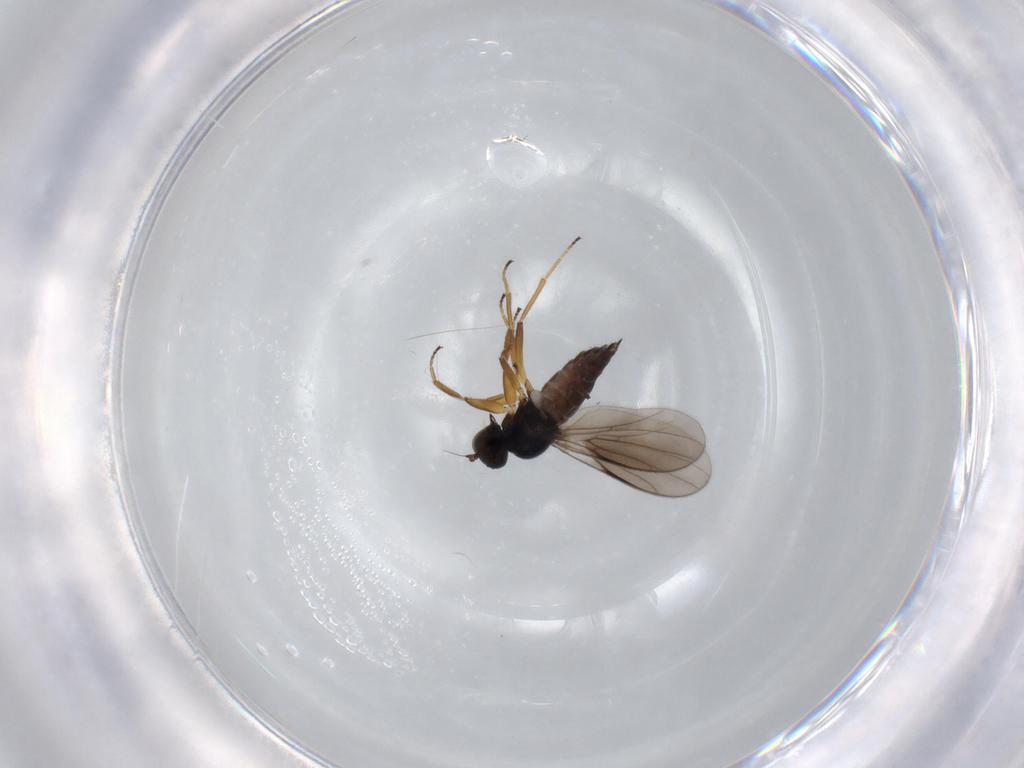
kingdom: Animalia
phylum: Arthropoda
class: Insecta
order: Diptera
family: Hybotidae
